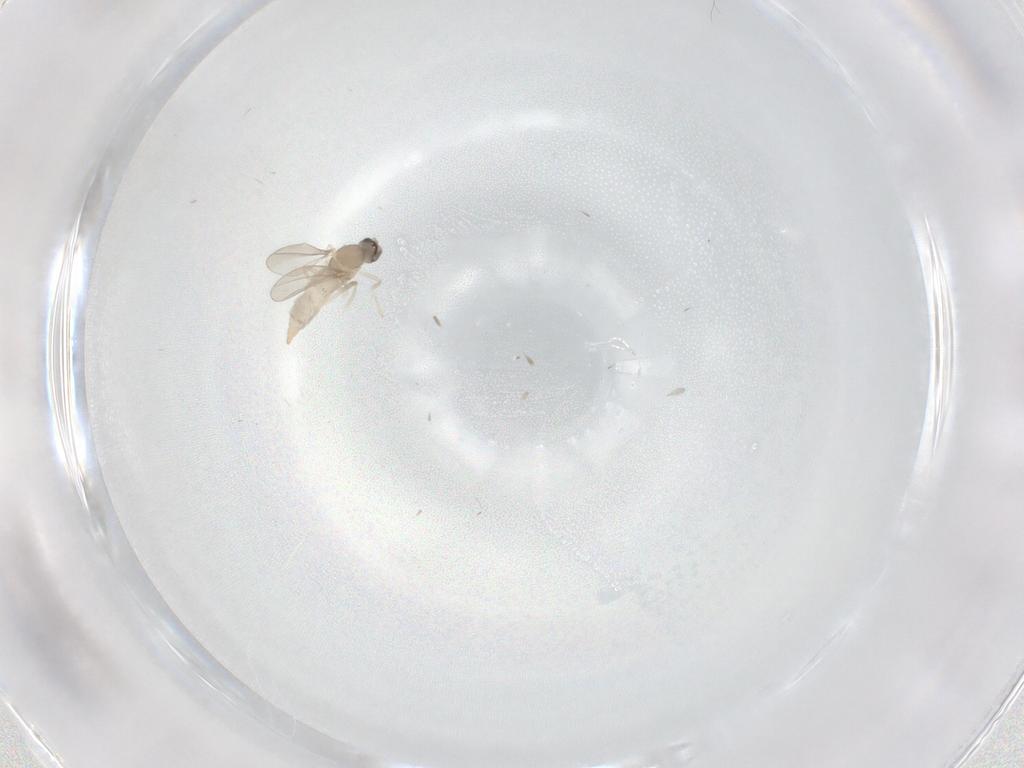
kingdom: Animalia
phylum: Arthropoda
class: Insecta
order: Diptera
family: Cecidomyiidae
